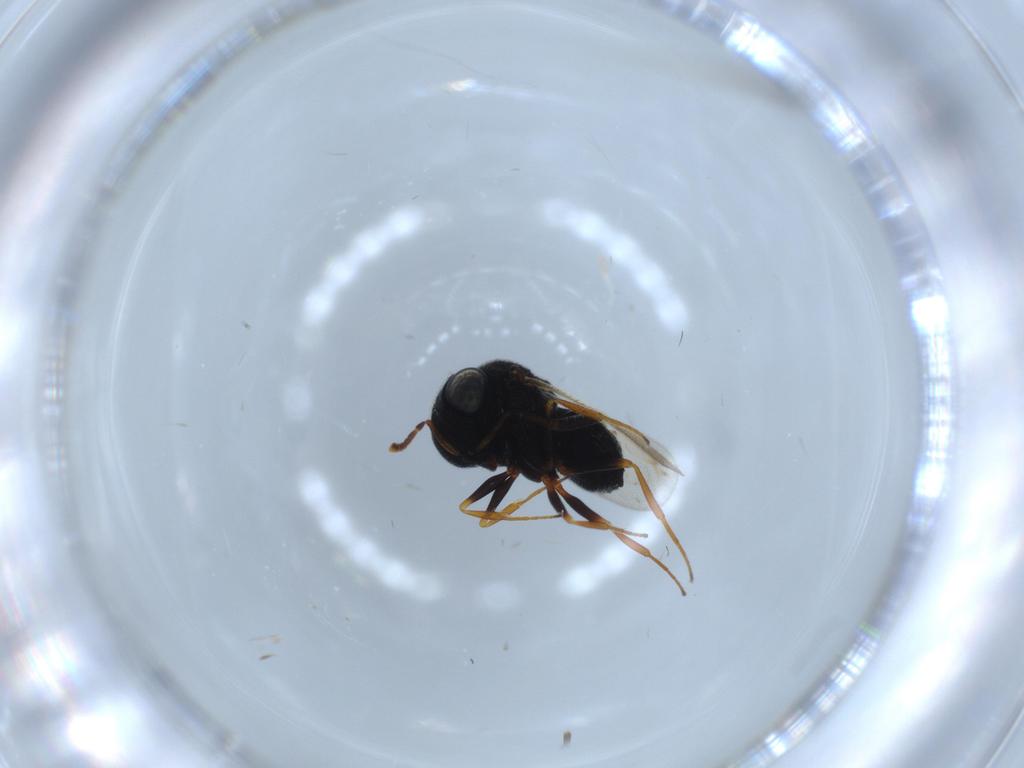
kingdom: Animalia
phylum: Arthropoda
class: Insecta
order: Hymenoptera
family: Scelionidae
